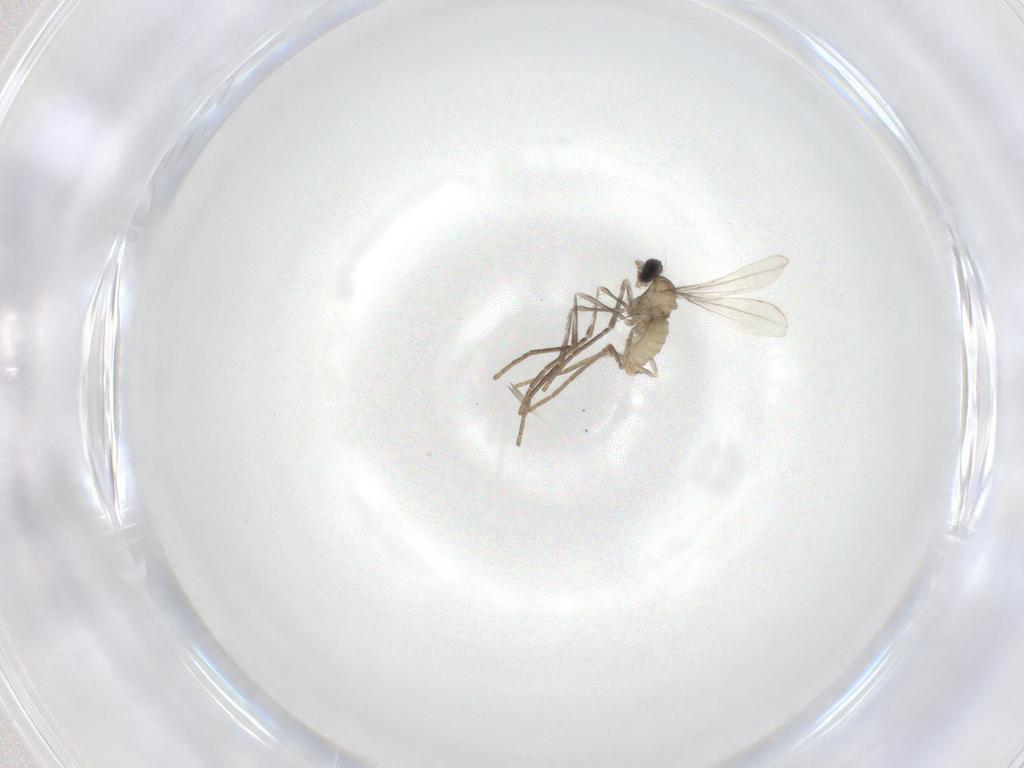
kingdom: Animalia
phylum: Arthropoda
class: Insecta
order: Diptera
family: Cecidomyiidae
